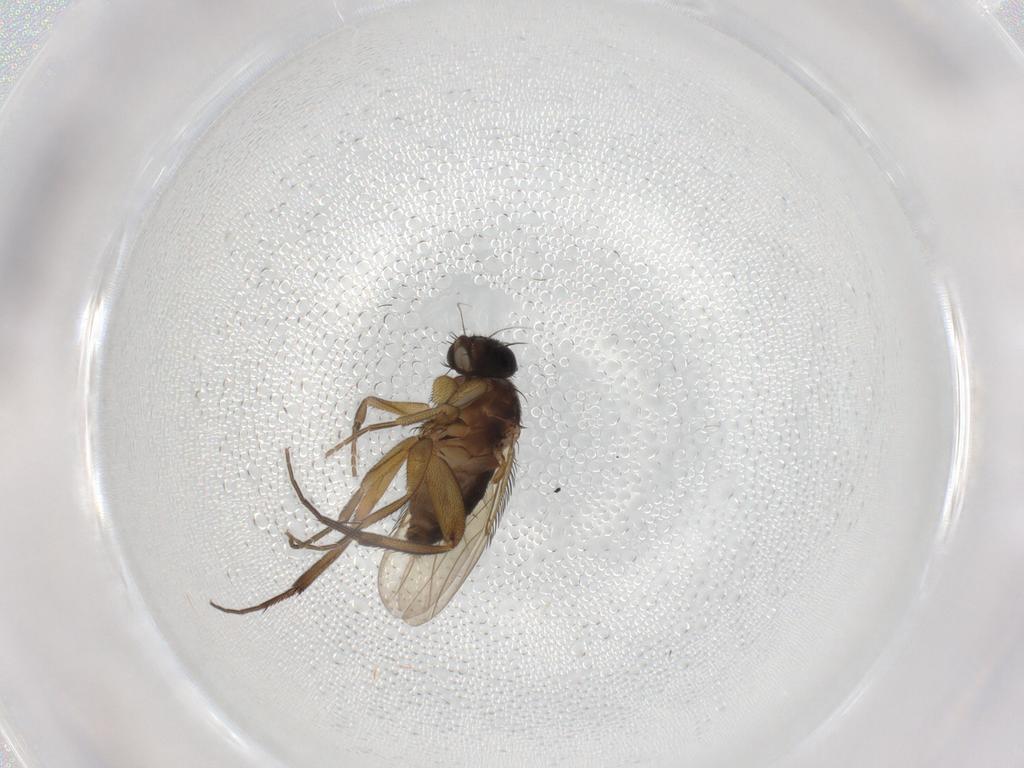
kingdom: Animalia
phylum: Arthropoda
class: Insecta
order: Diptera
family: Phoridae
